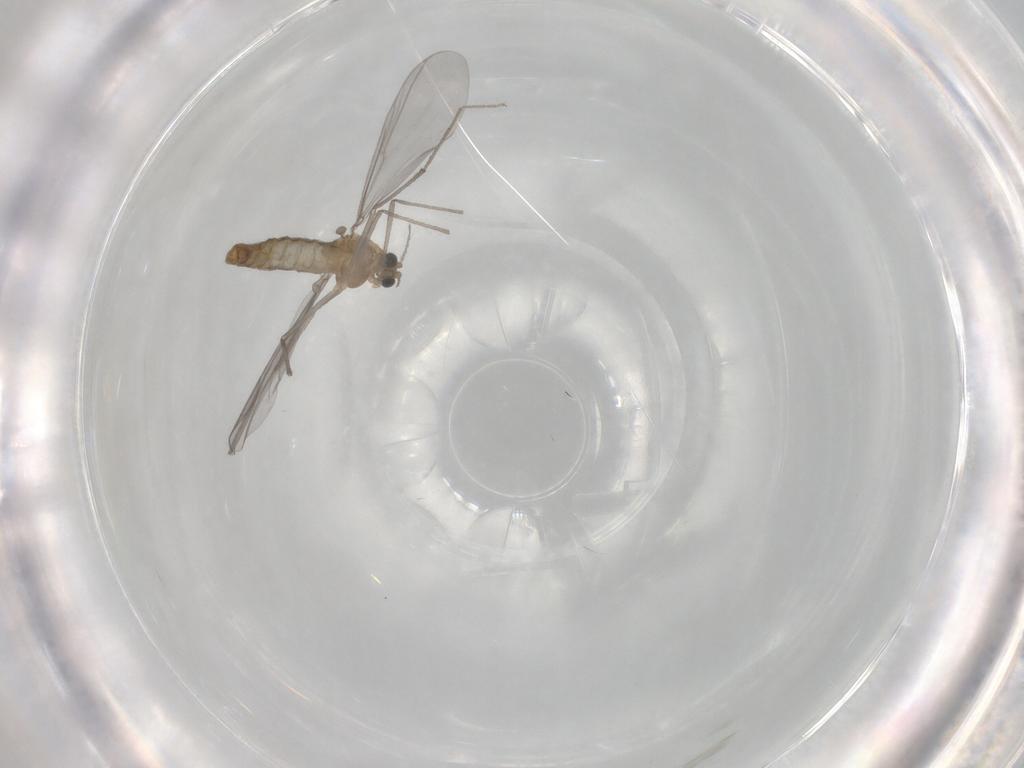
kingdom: Animalia
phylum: Arthropoda
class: Insecta
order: Diptera
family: Chironomidae
